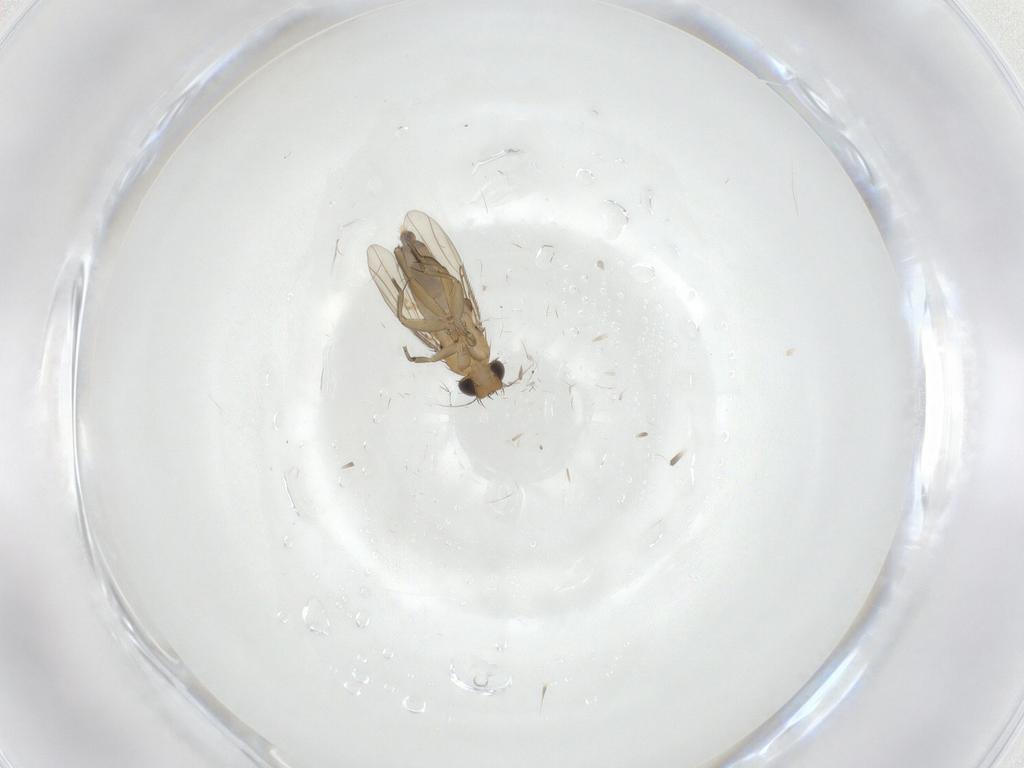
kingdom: Animalia
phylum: Arthropoda
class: Insecta
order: Diptera
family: Phoridae
